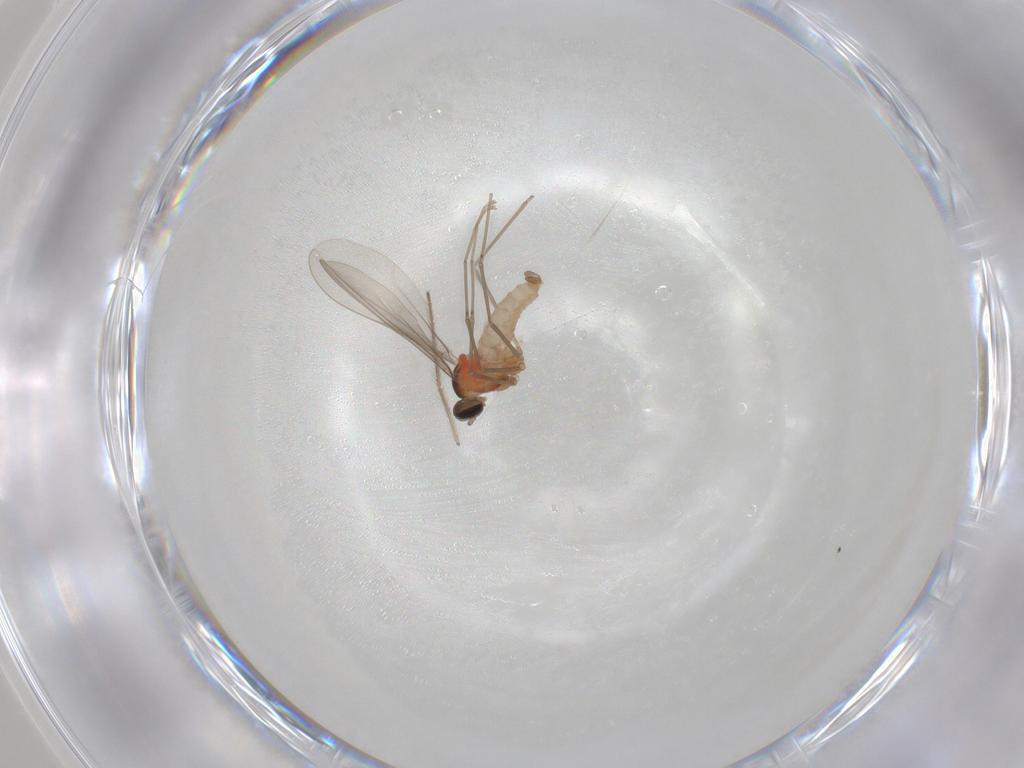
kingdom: Animalia
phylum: Arthropoda
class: Insecta
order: Diptera
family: Cecidomyiidae
